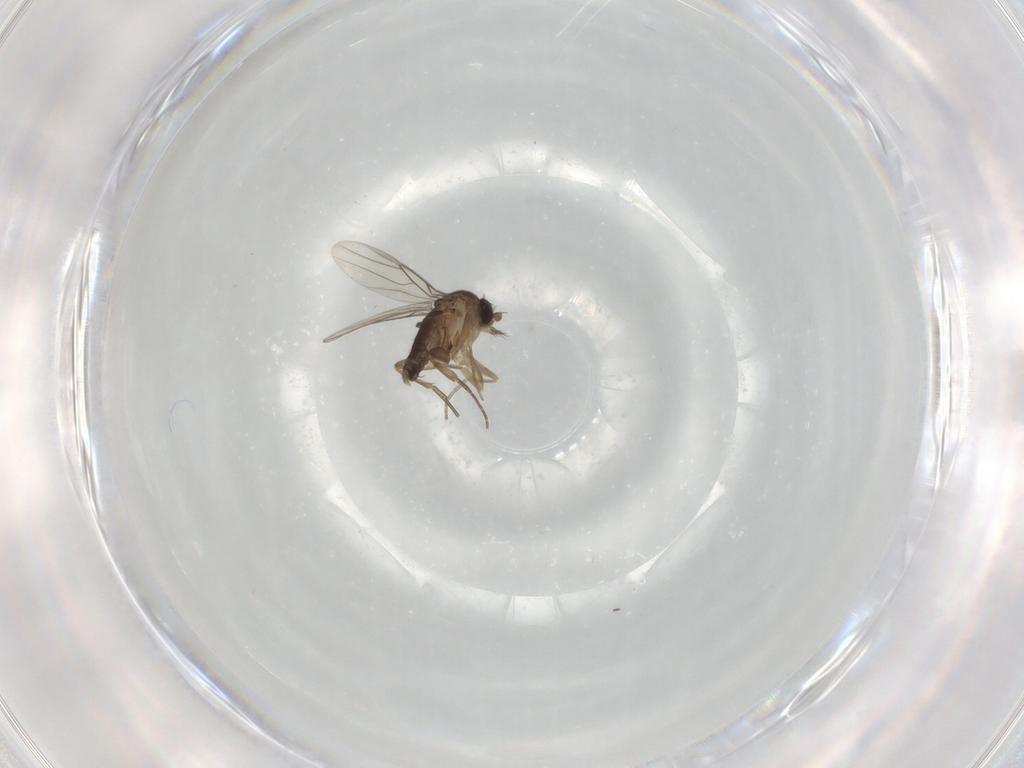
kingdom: Animalia
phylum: Arthropoda
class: Insecta
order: Diptera
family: Phoridae
